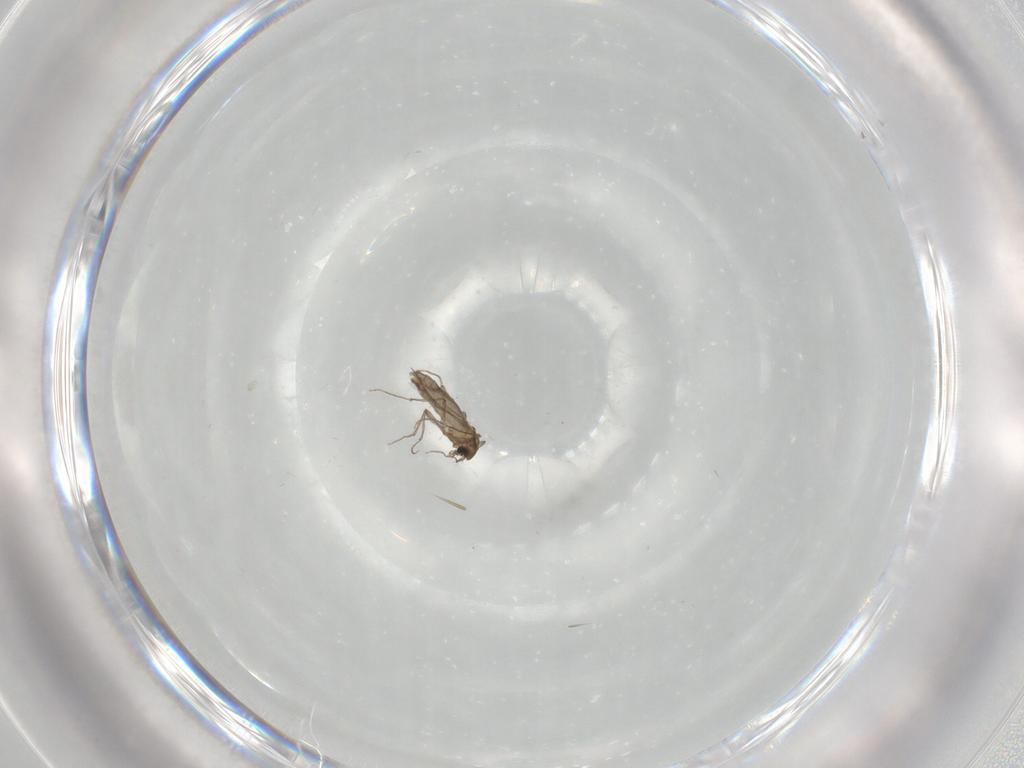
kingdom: Animalia
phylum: Arthropoda
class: Insecta
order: Diptera
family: Chironomidae
